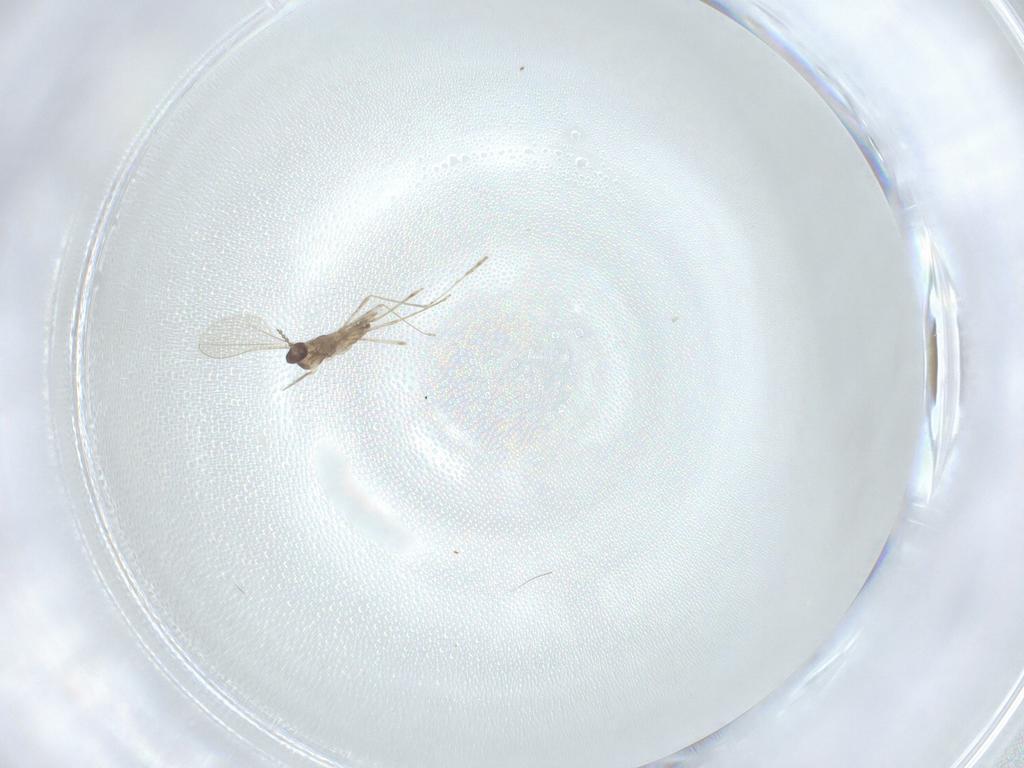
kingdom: Animalia
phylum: Arthropoda
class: Insecta
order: Diptera
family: Cecidomyiidae
